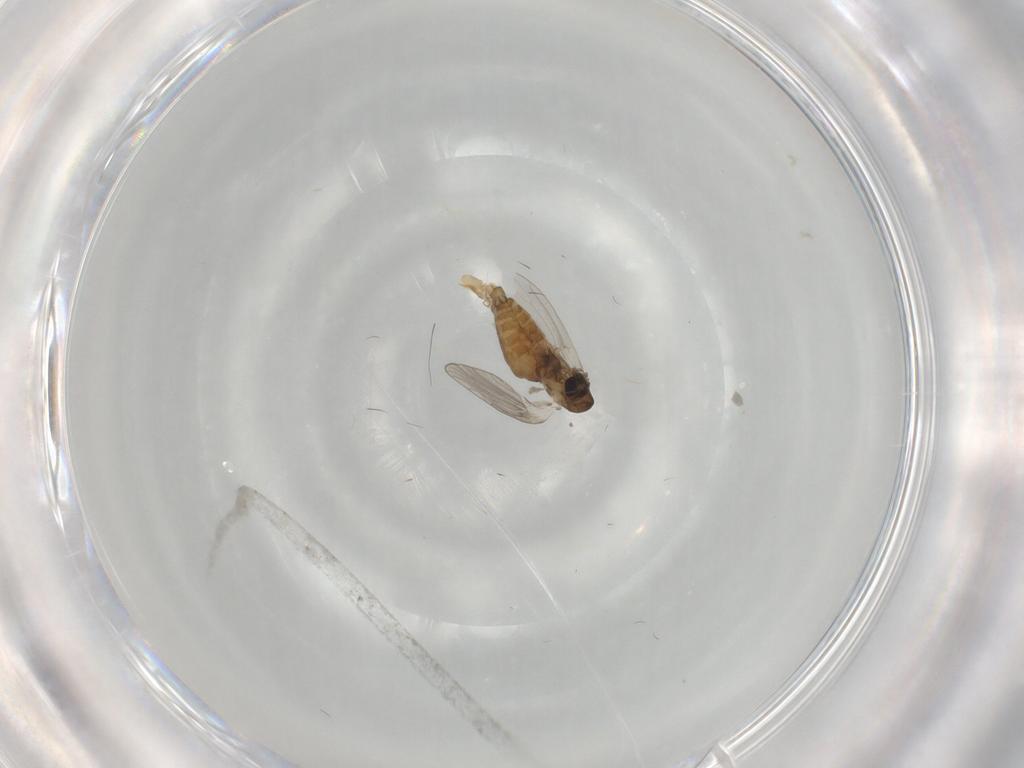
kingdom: Animalia
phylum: Arthropoda
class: Insecta
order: Diptera
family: Psychodidae
